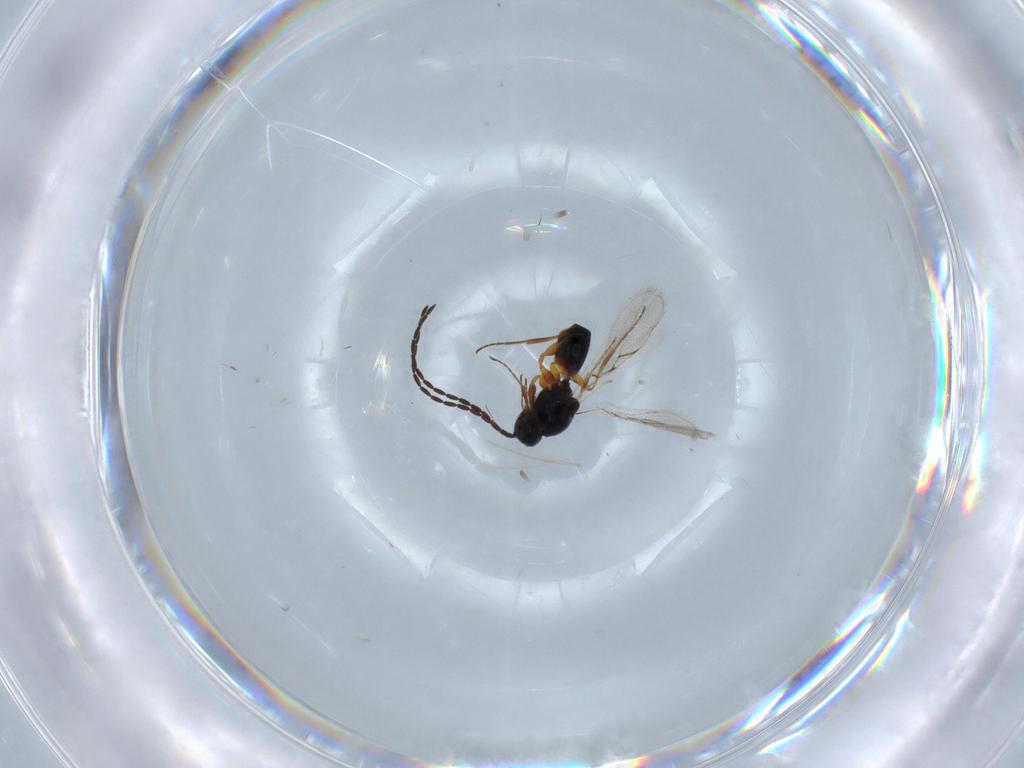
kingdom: Animalia
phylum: Arthropoda
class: Insecta
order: Hymenoptera
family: Figitidae
